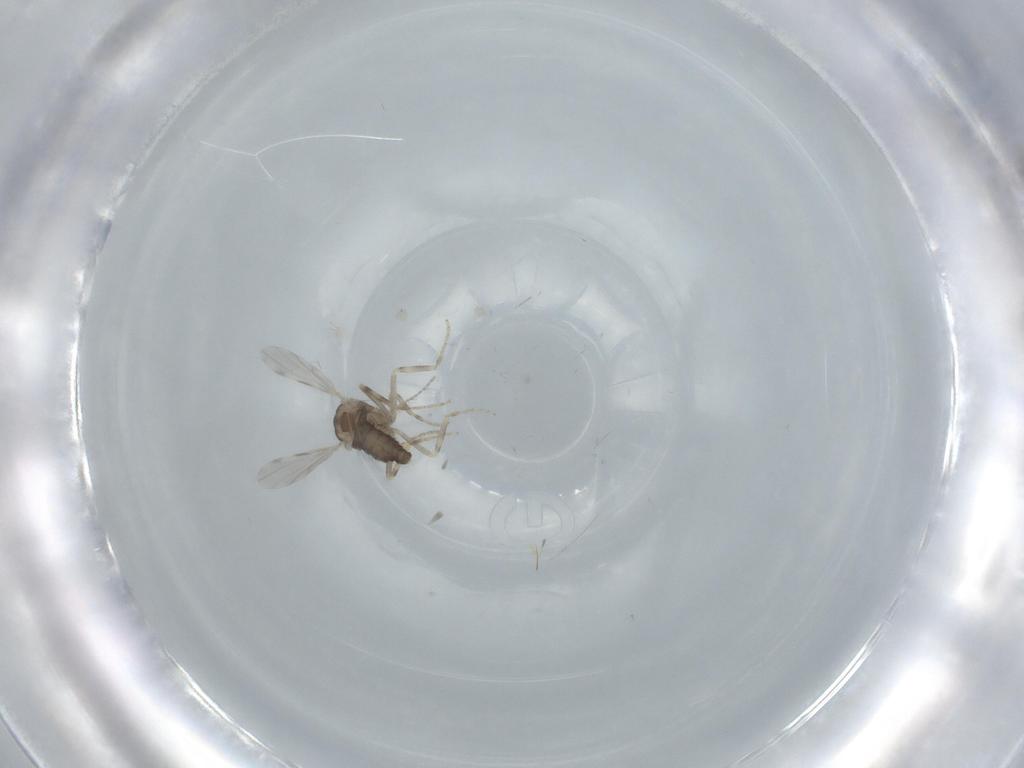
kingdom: Animalia
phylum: Arthropoda
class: Insecta
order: Diptera
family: Ceratopogonidae
